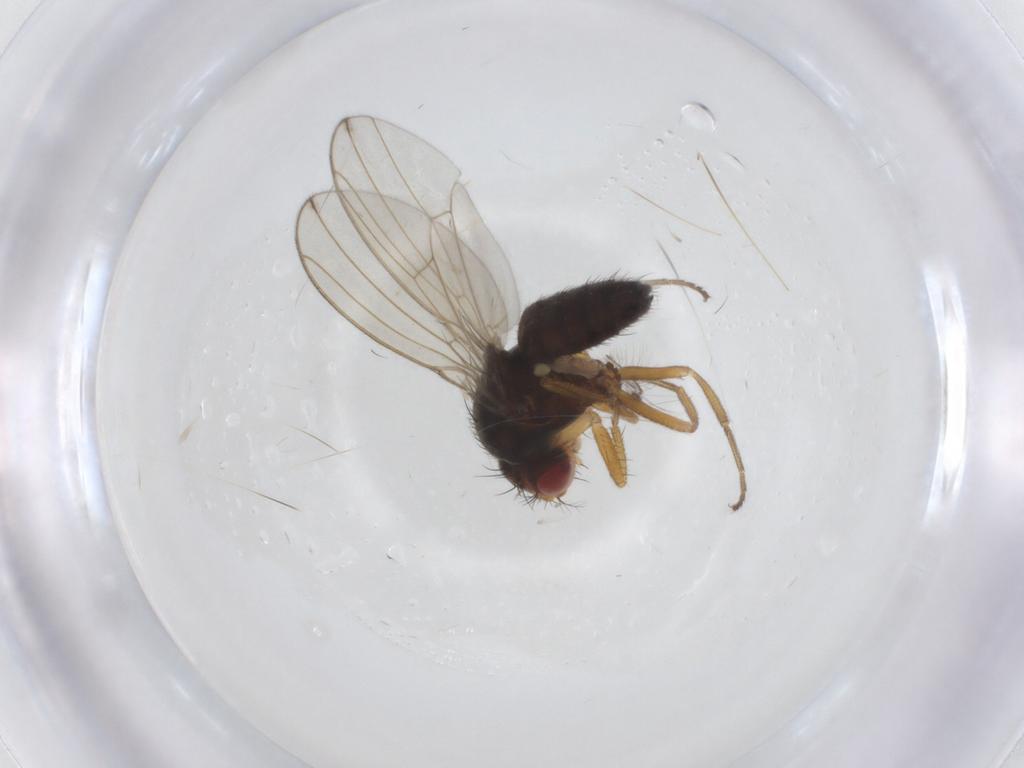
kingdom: Animalia
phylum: Arthropoda
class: Insecta
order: Diptera
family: Drosophilidae
